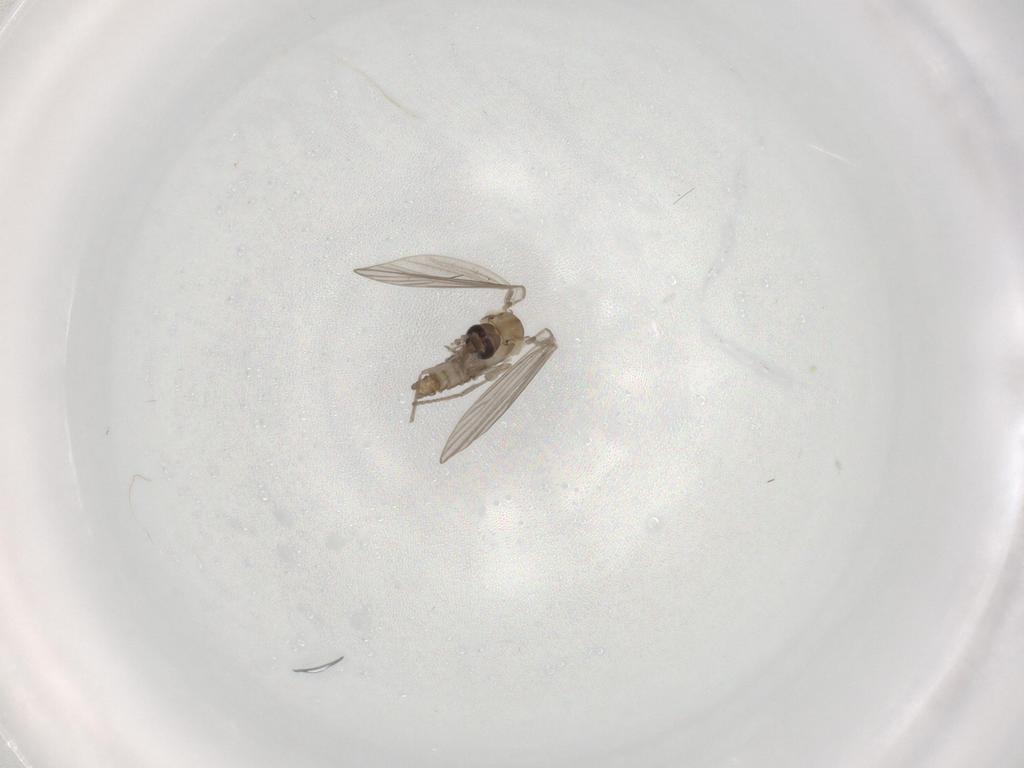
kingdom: Animalia
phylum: Arthropoda
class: Insecta
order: Diptera
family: Psychodidae
